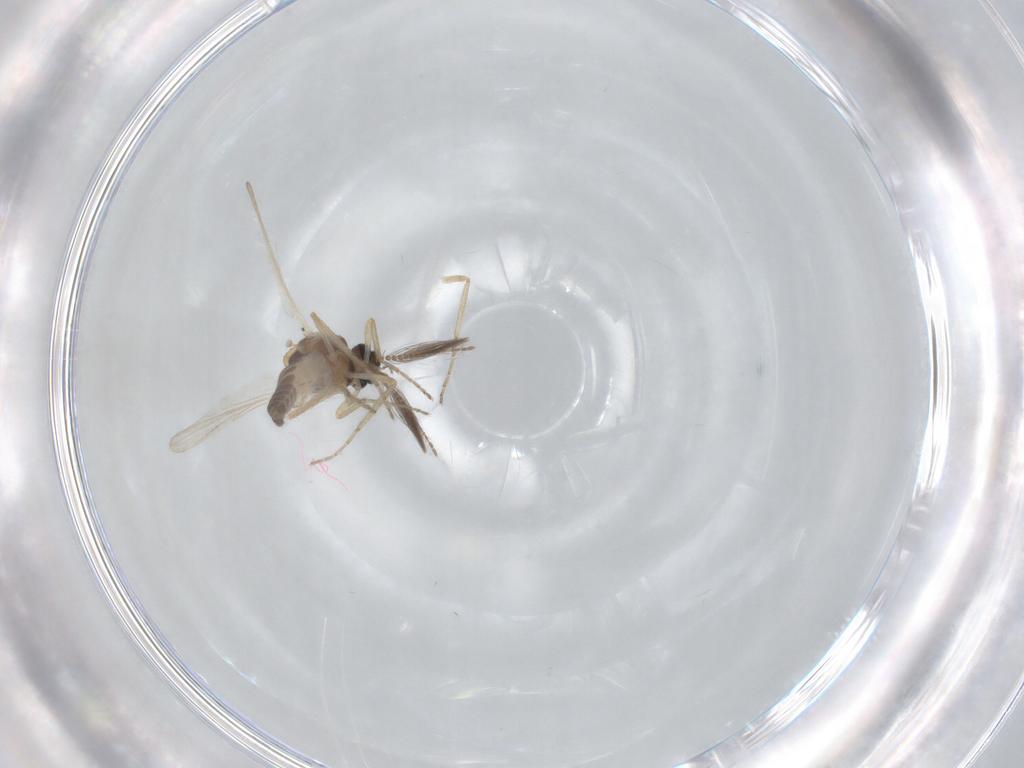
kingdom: Animalia
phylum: Arthropoda
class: Insecta
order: Diptera
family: Ceratopogonidae
